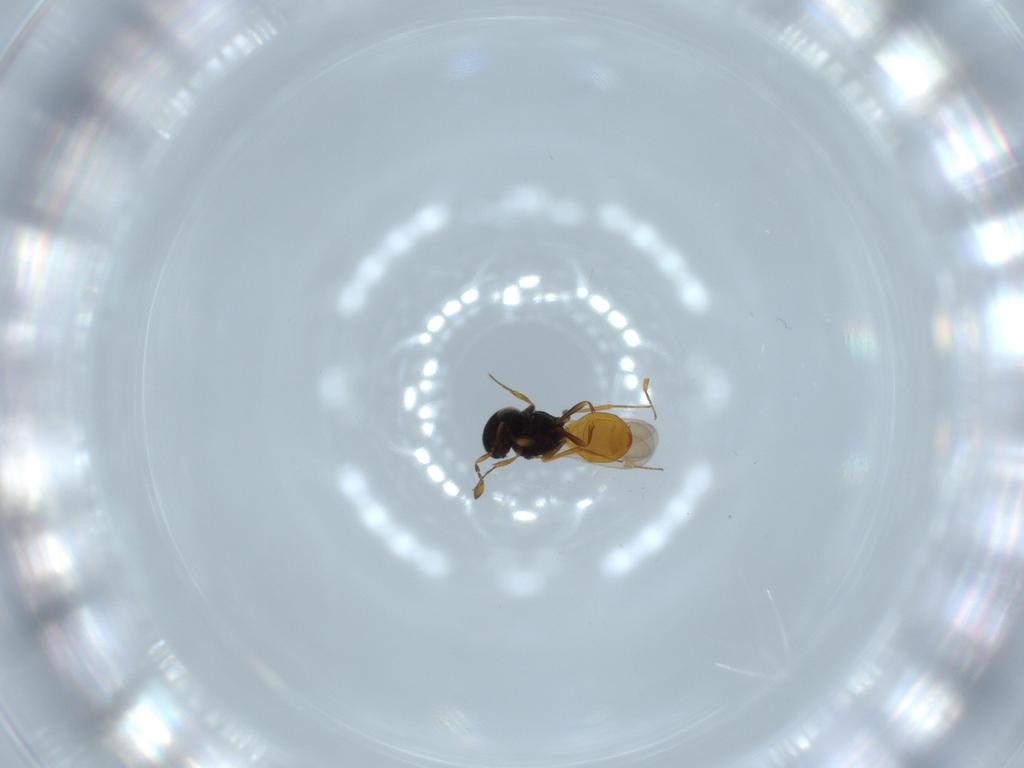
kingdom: Animalia
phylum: Arthropoda
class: Insecta
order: Hymenoptera
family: Scelionidae
